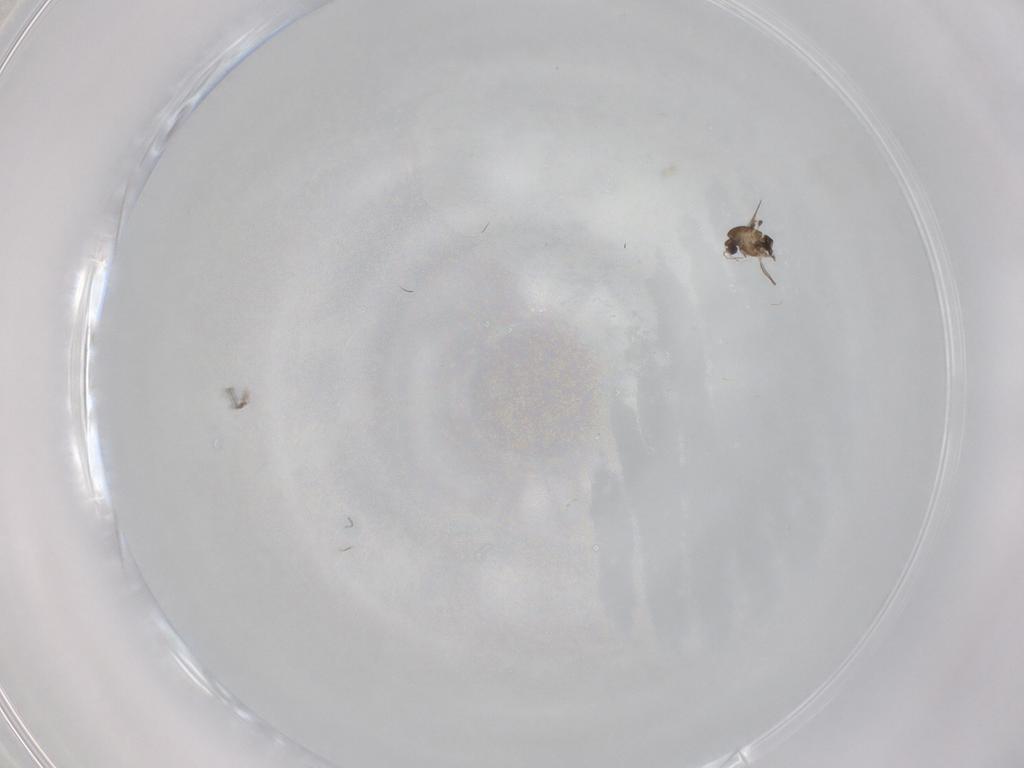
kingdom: Animalia
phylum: Arthropoda
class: Insecta
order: Diptera
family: Chironomidae
